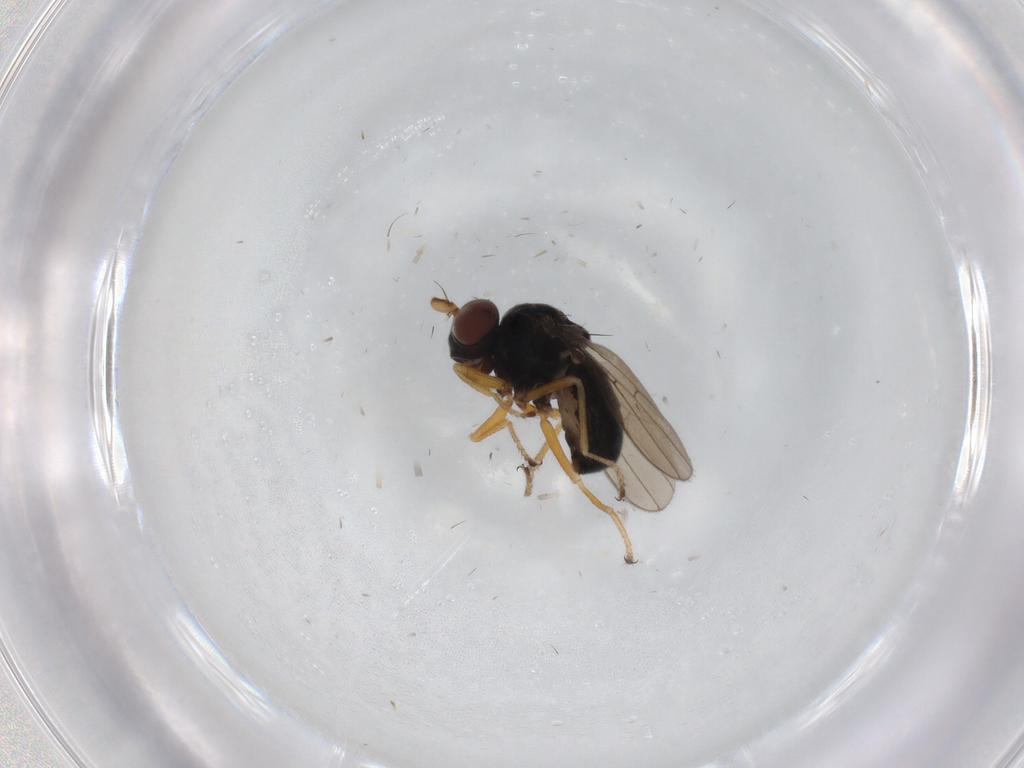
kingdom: Animalia
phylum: Arthropoda
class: Insecta
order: Diptera
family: Ephydridae
